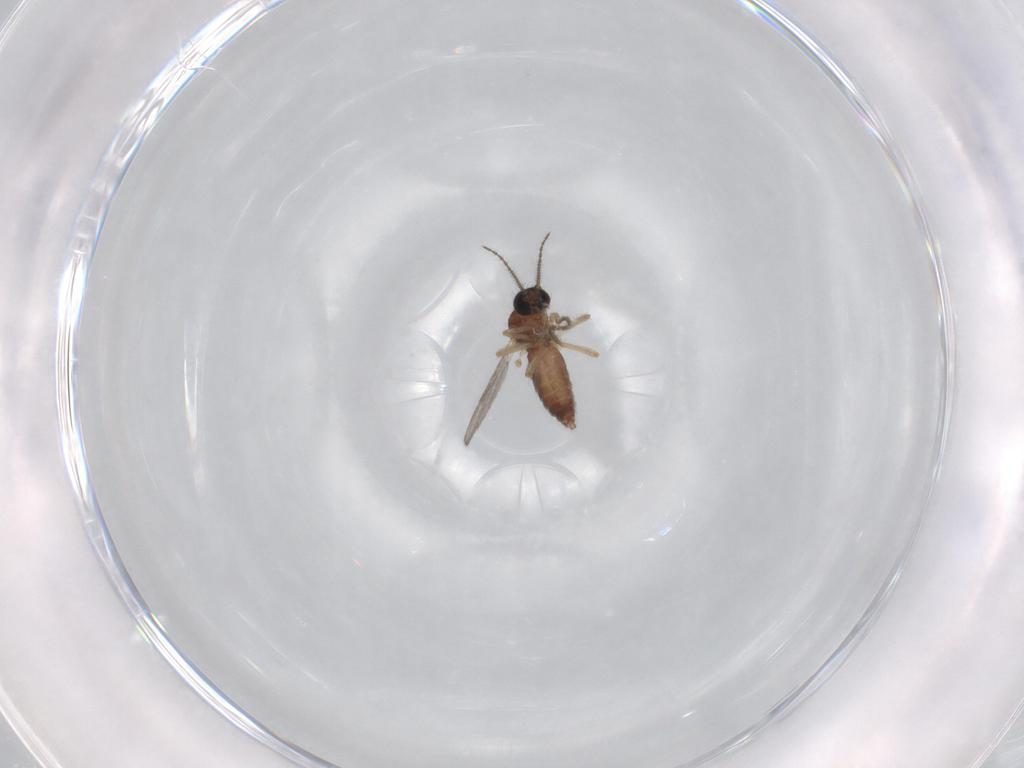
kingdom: Animalia
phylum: Arthropoda
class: Insecta
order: Diptera
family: Ceratopogonidae
